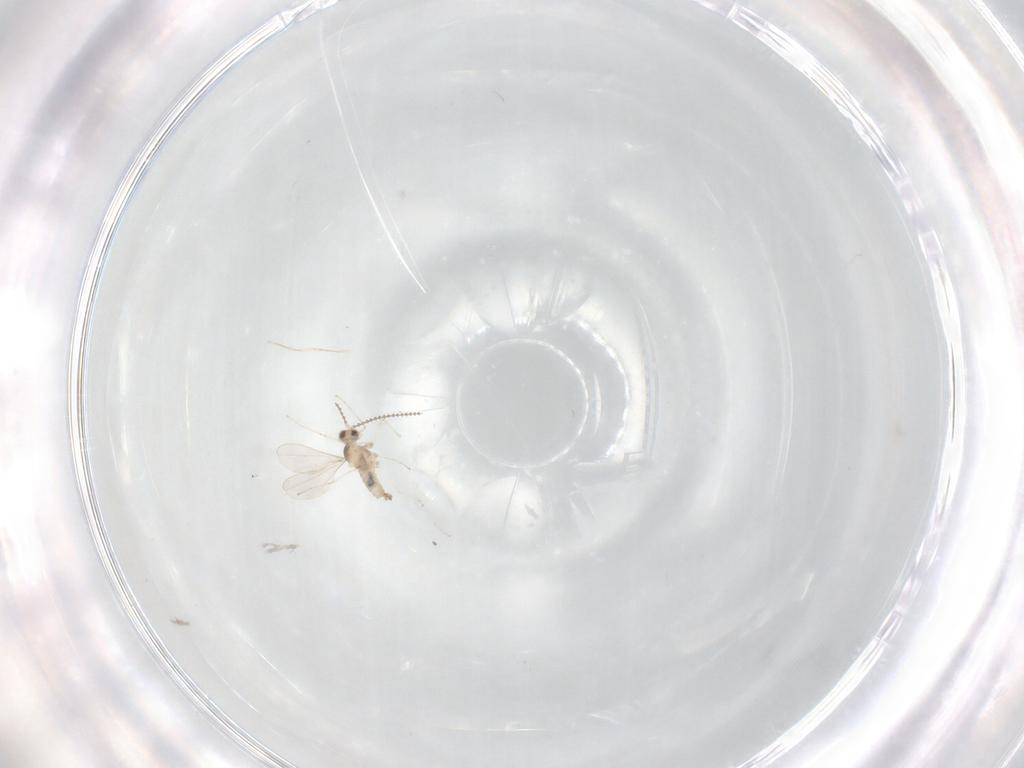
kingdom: Animalia
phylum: Arthropoda
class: Insecta
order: Diptera
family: Cecidomyiidae
